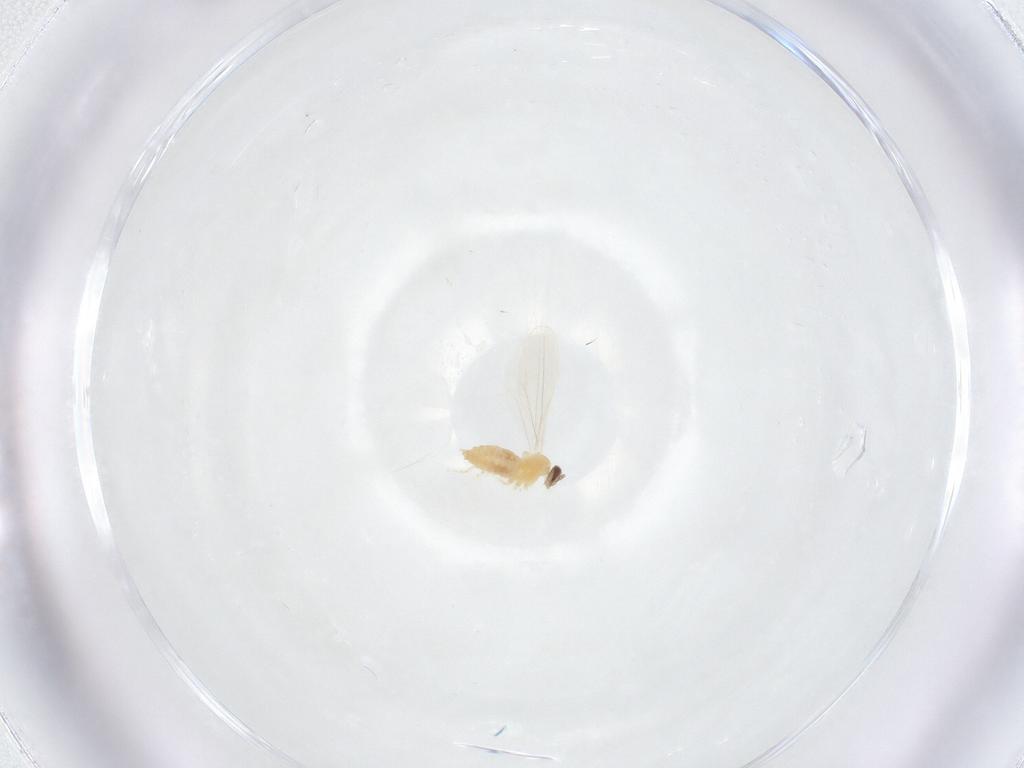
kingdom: Animalia
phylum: Arthropoda
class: Insecta
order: Diptera
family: Cecidomyiidae
